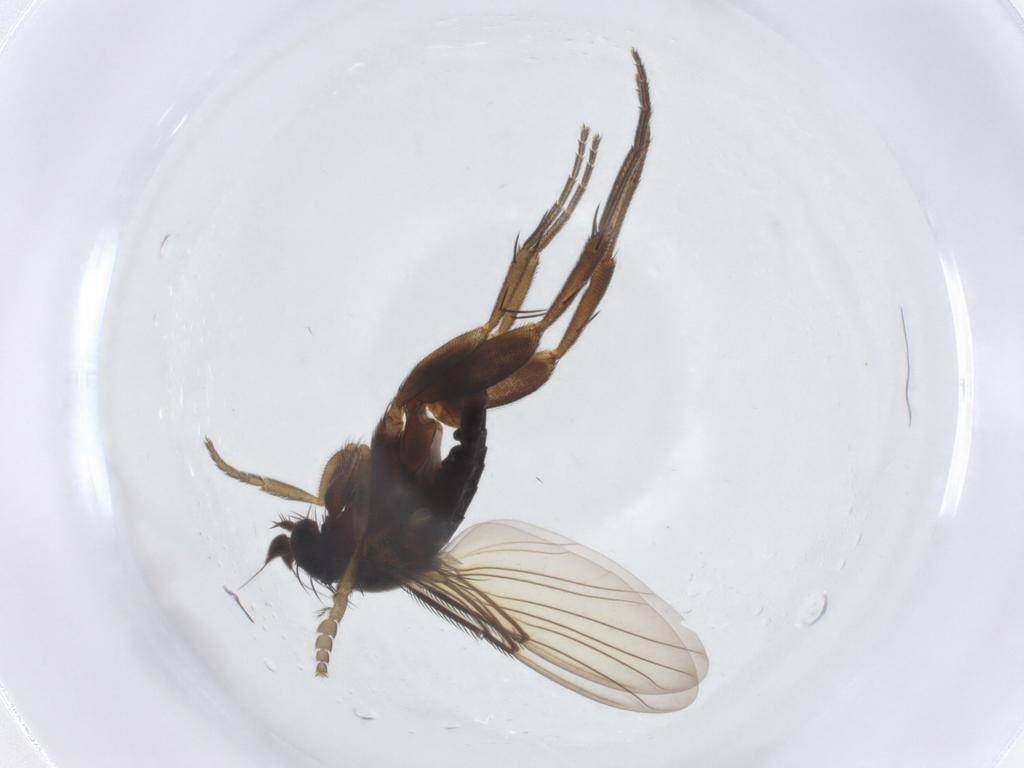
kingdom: Animalia
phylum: Arthropoda
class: Insecta
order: Diptera
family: Phoridae
